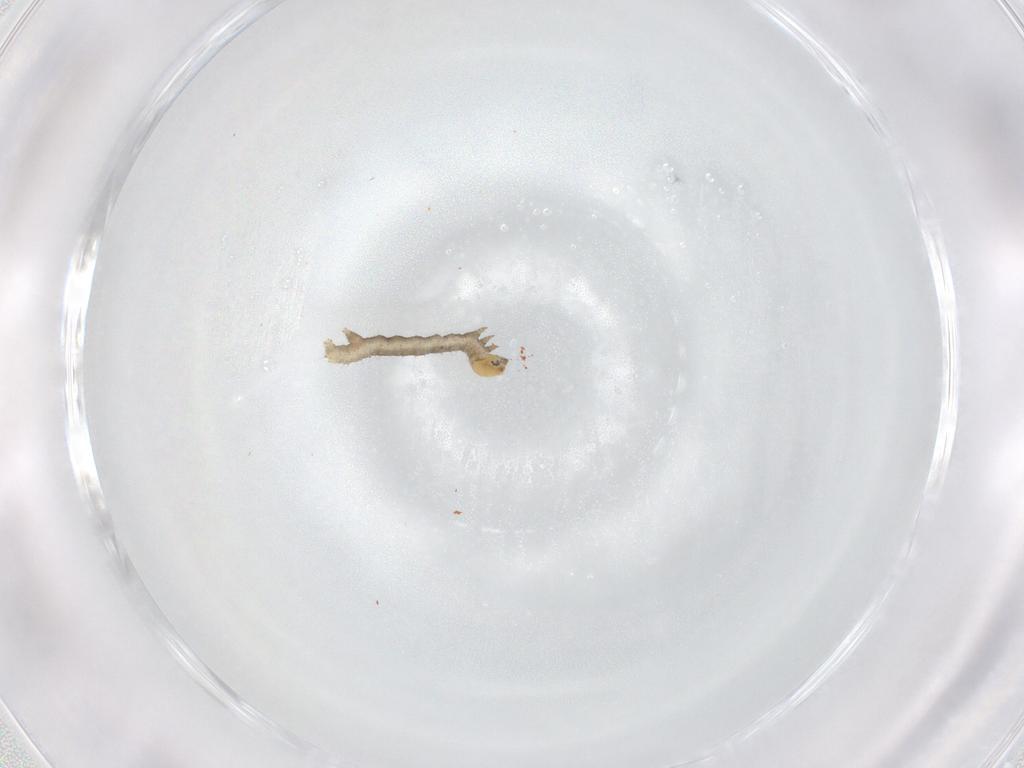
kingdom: Animalia
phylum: Arthropoda
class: Insecta
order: Lepidoptera
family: Geometridae
